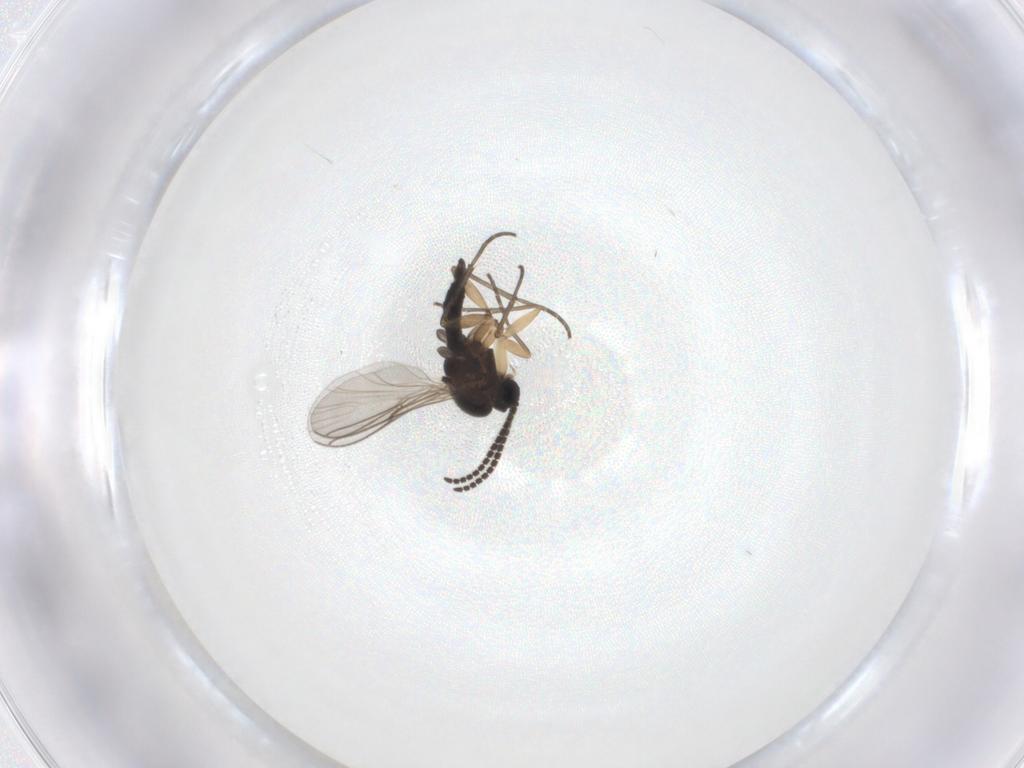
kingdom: Animalia
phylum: Arthropoda
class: Insecta
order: Diptera
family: Sciaridae
